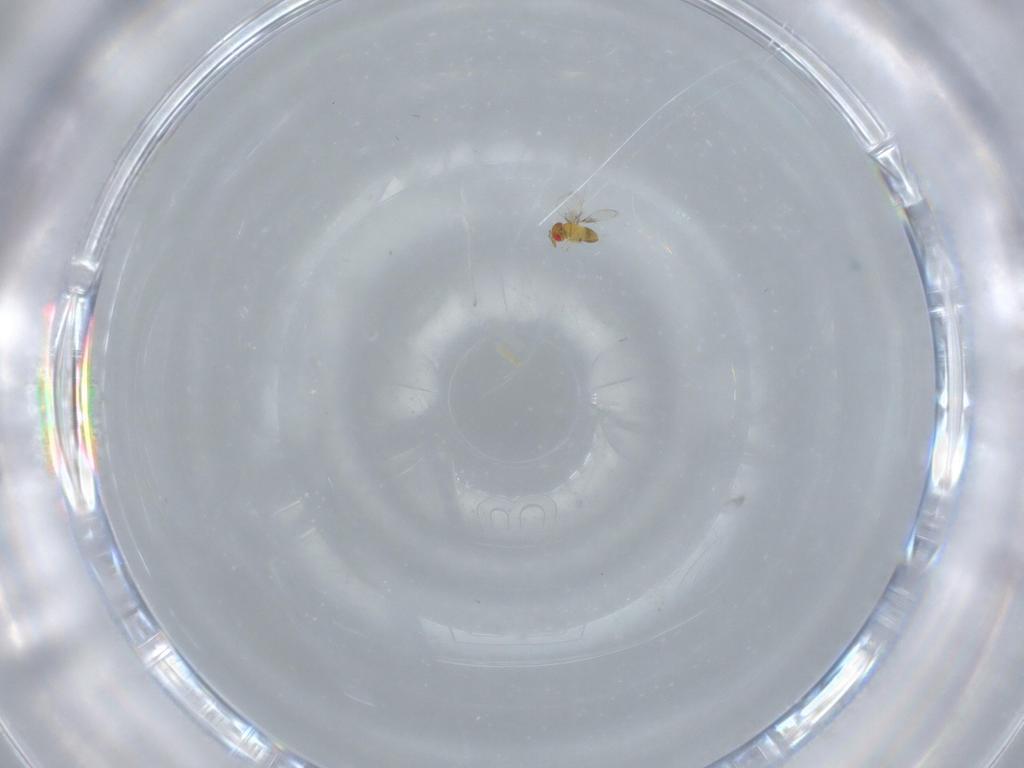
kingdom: Animalia
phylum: Arthropoda
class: Insecta
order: Hymenoptera
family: Trichogrammatidae
